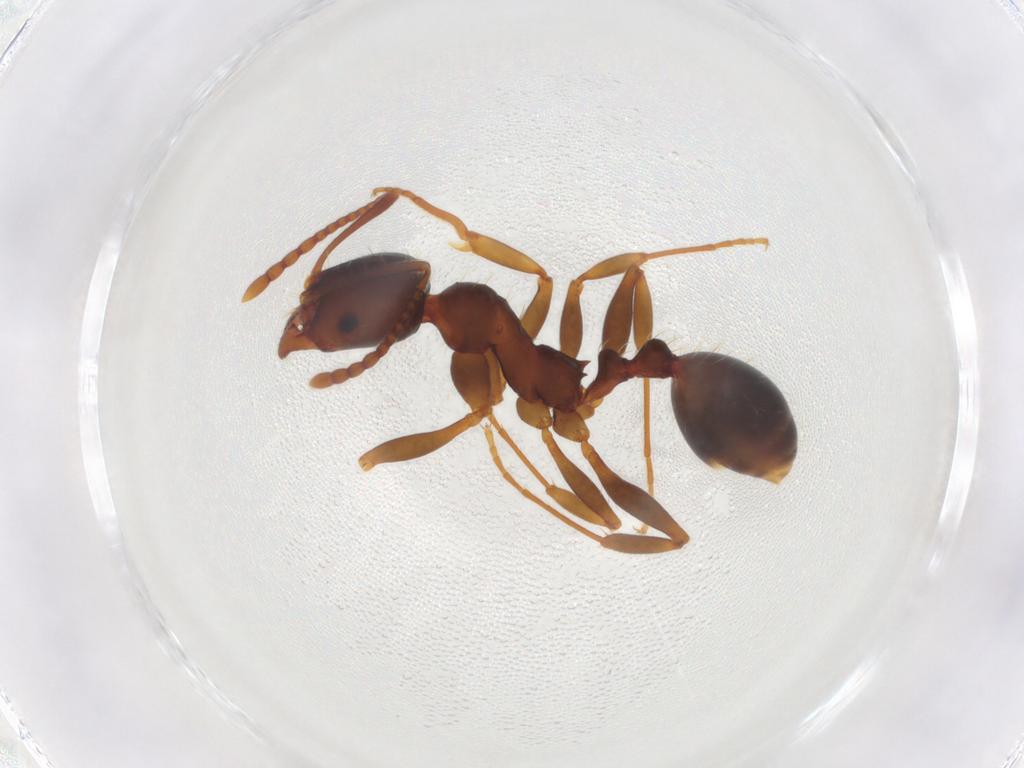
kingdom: Animalia
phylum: Arthropoda
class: Insecta
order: Hymenoptera
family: Formicidae
